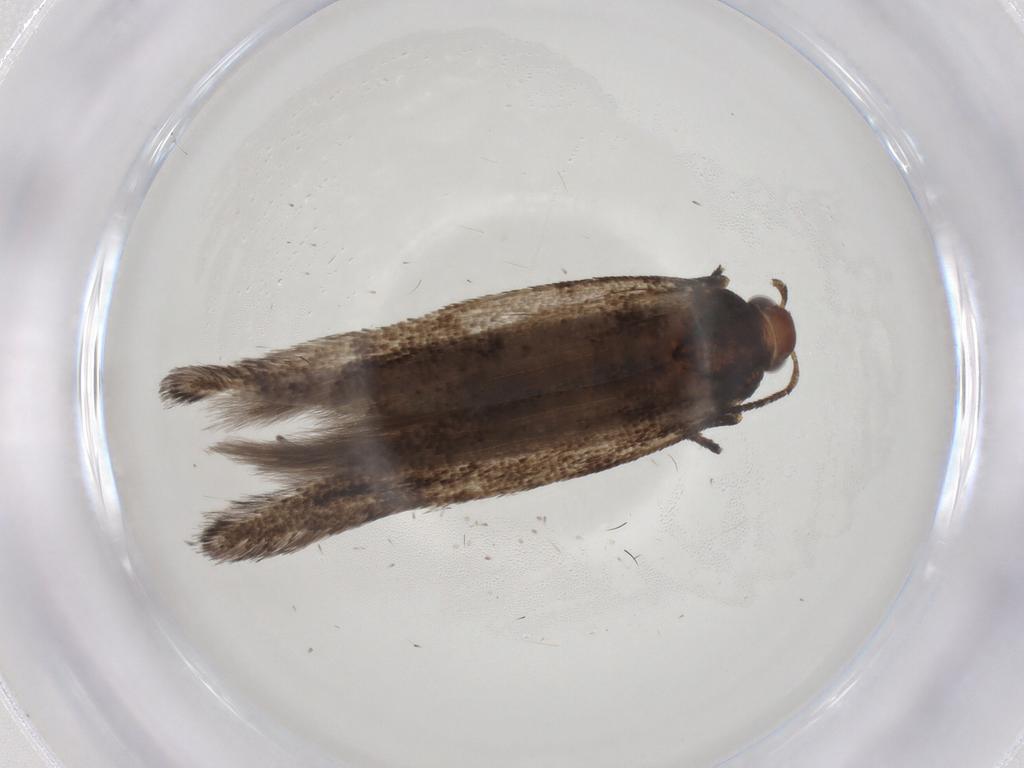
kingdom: Animalia
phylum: Arthropoda
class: Insecta
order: Lepidoptera
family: Gelechiidae
